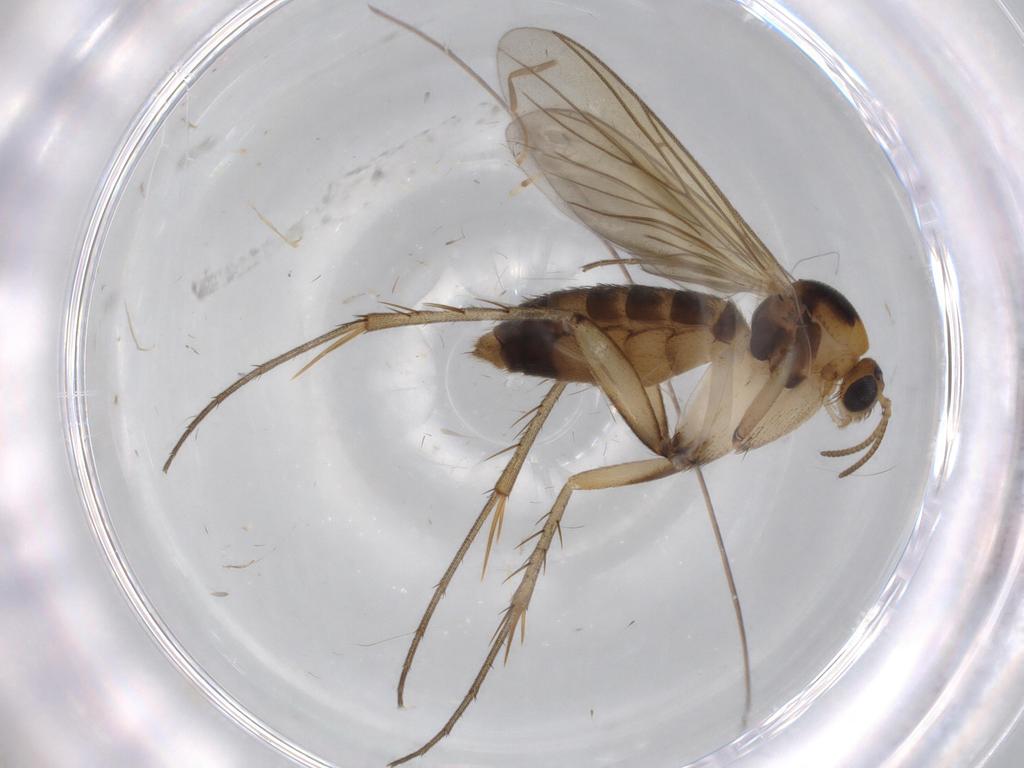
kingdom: Animalia
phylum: Arthropoda
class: Insecta
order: Diptera
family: Mycetophilidae
